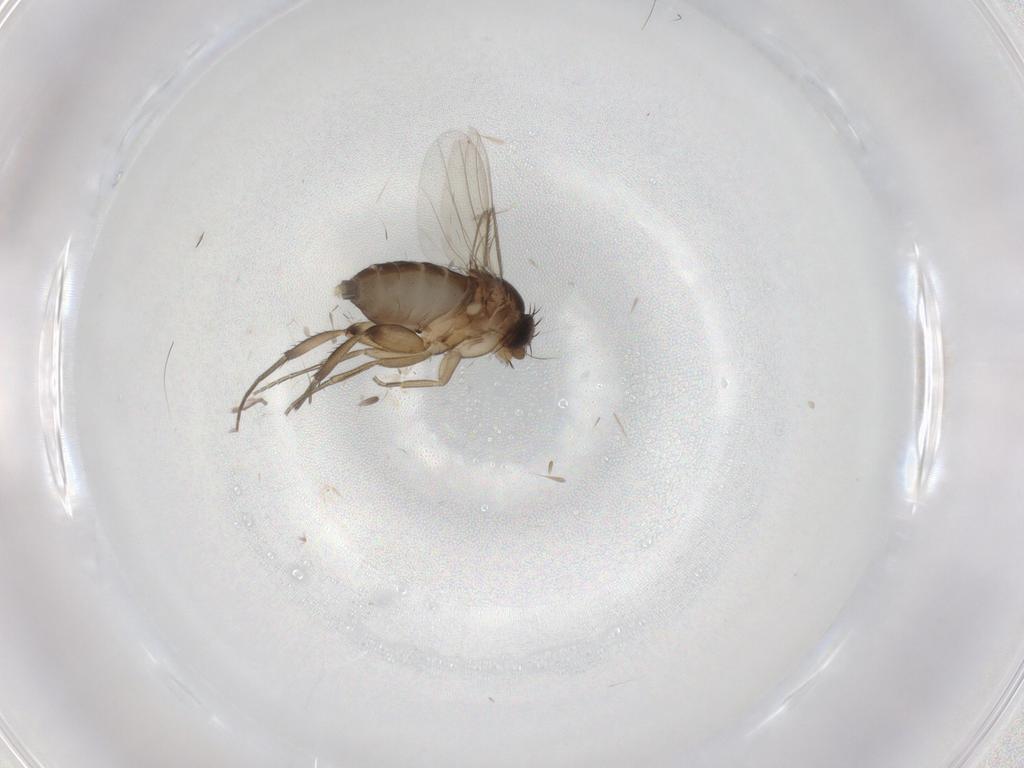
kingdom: Animalia
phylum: Arthropoda
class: Insecta
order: Diptera
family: Phoridae
